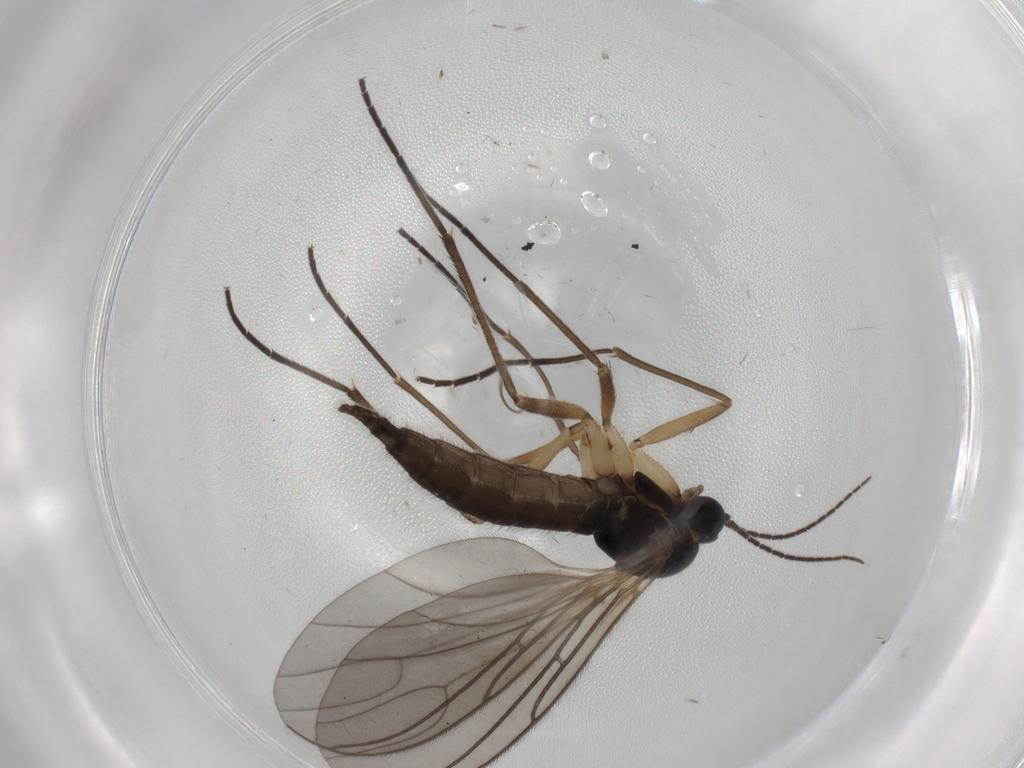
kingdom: Animalia
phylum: Arthropoda
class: Insecta
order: Diptera
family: Sciaridae
